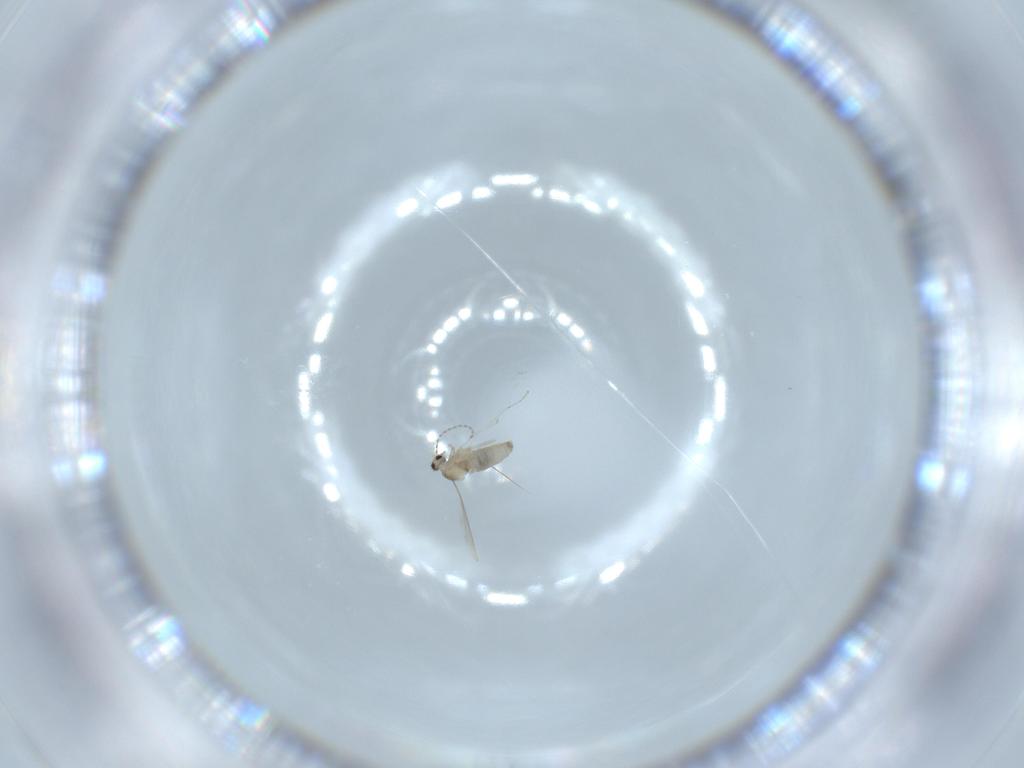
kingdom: Animalia
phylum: Arthropoda
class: Insecta
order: Diptera
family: Cecidomyiidae
